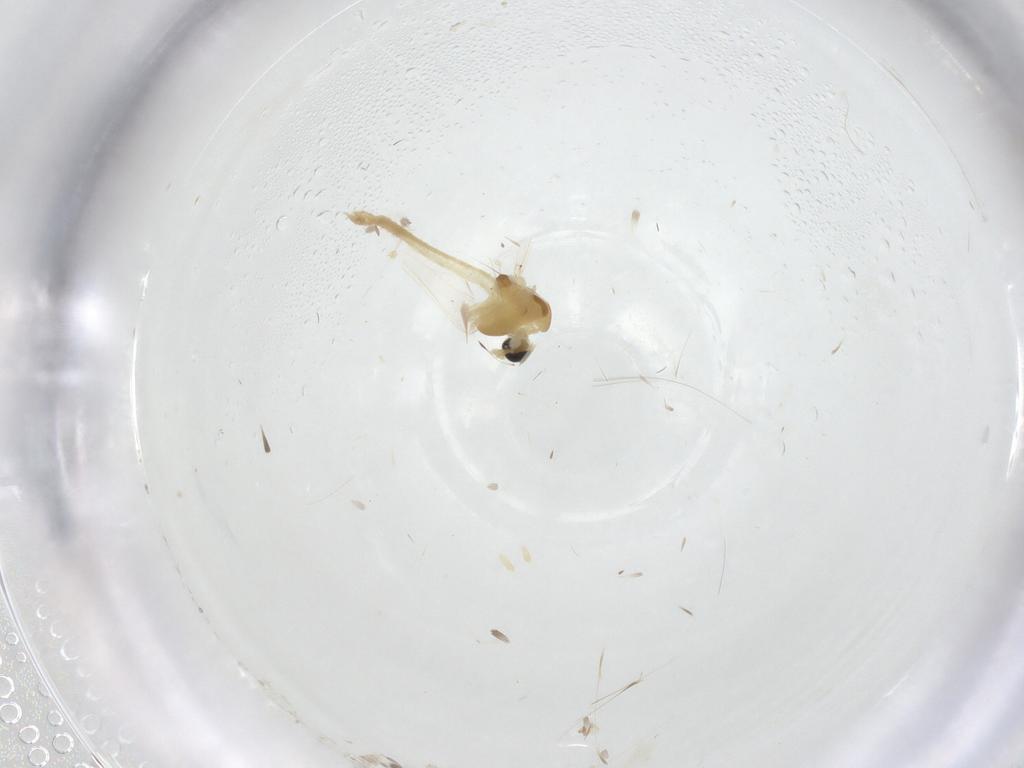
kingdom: Animalia
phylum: Arthropoda
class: Insecta
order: Diptera
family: Chironomidae
